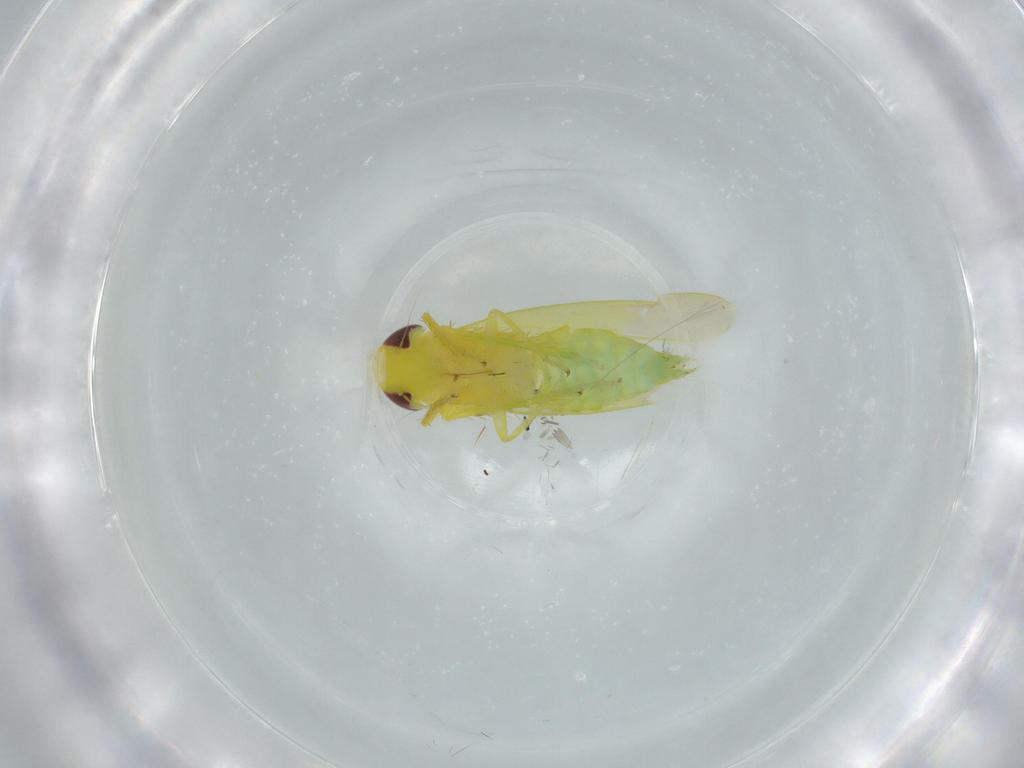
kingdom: Animalia
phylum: Arthropoda
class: Insecta
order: Hemiptera
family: Cicadellidae
